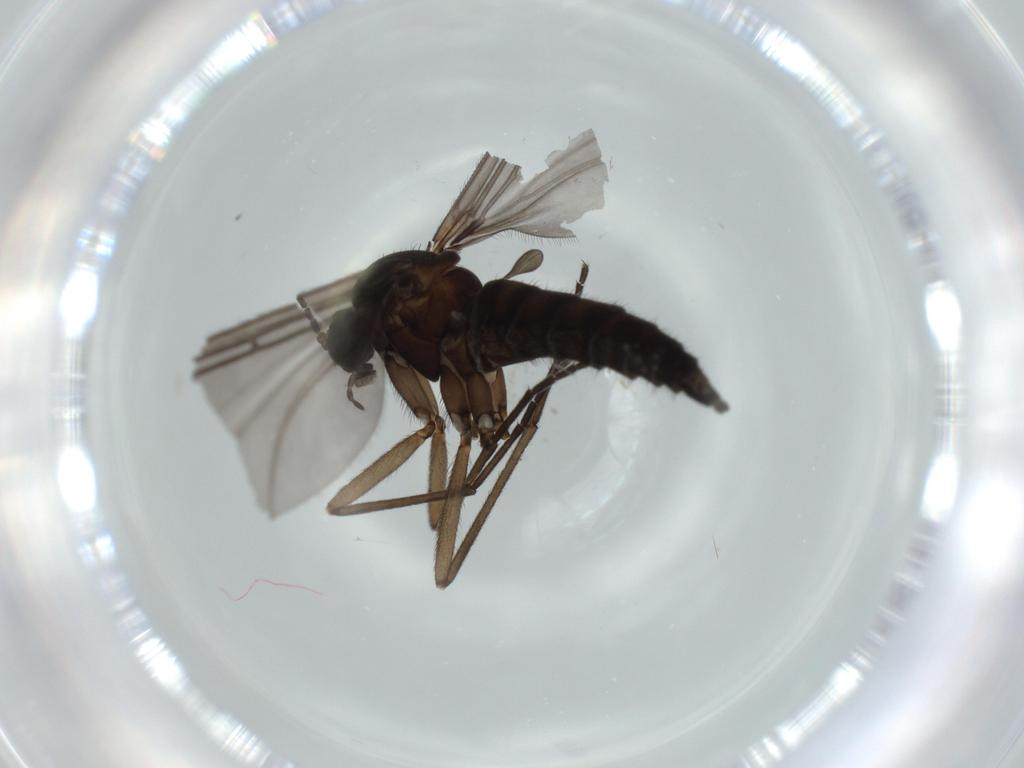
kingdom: Animalia
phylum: Arthropoda
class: Insecta
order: Diptera
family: Sciaridae
